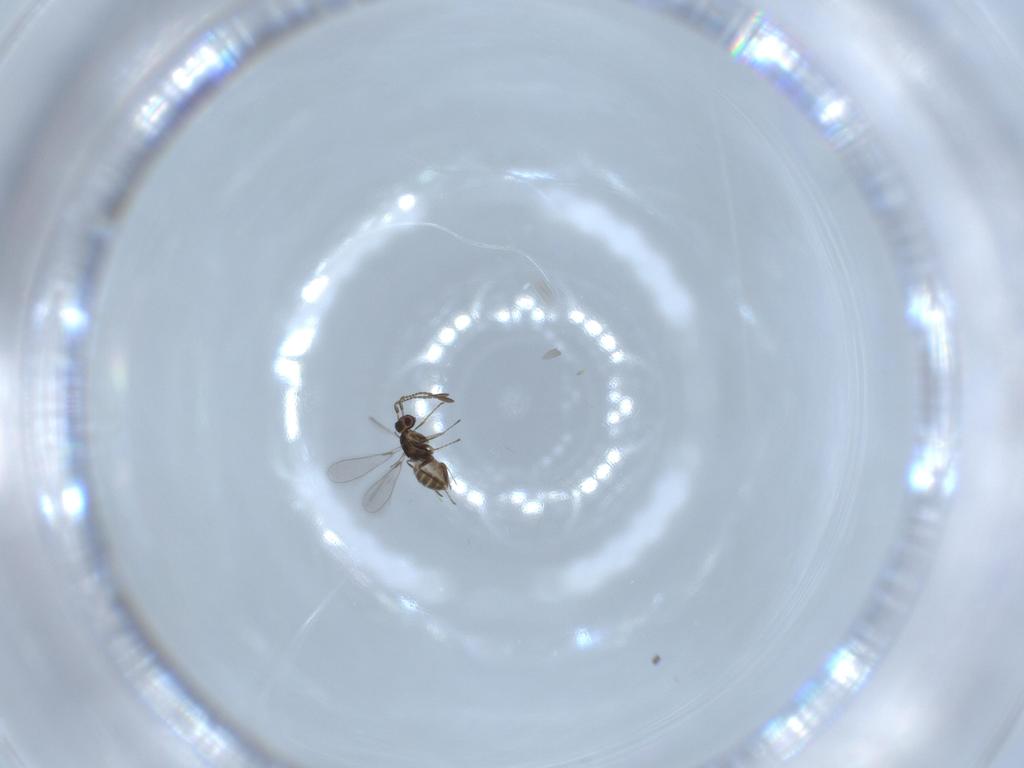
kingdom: Animalia
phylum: Arthropoda
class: Insecta
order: Hymenoptera
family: Mymaridae
